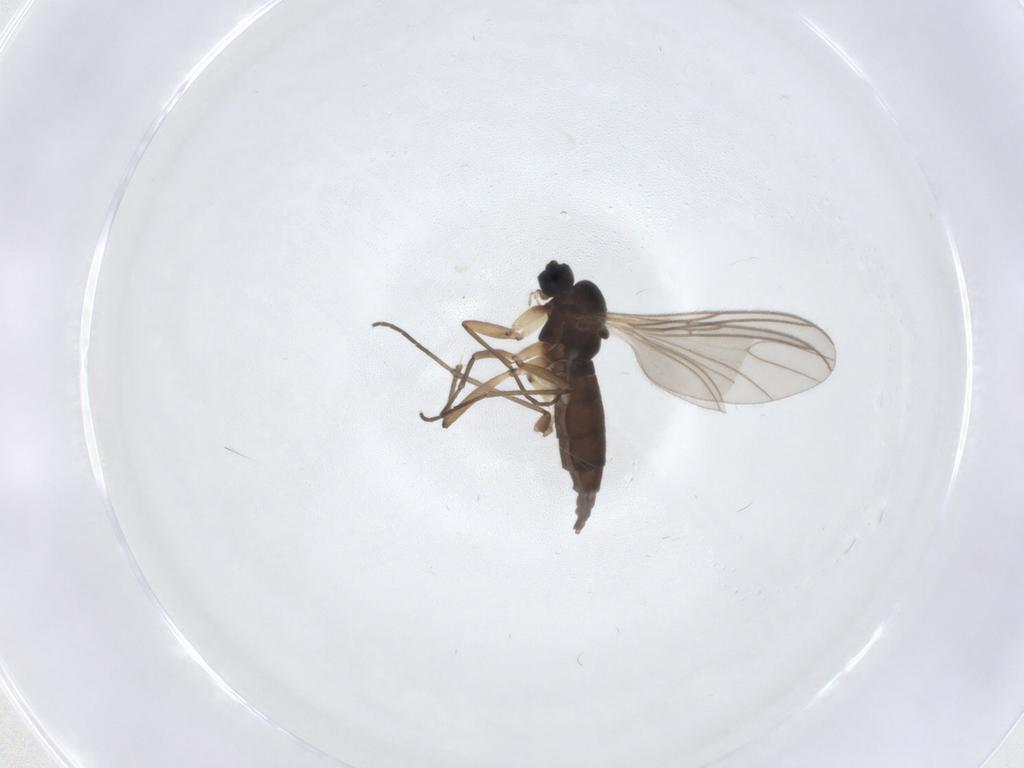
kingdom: Animalia
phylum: Arthropoda
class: Insecta
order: Diptera
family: Sciaridae
